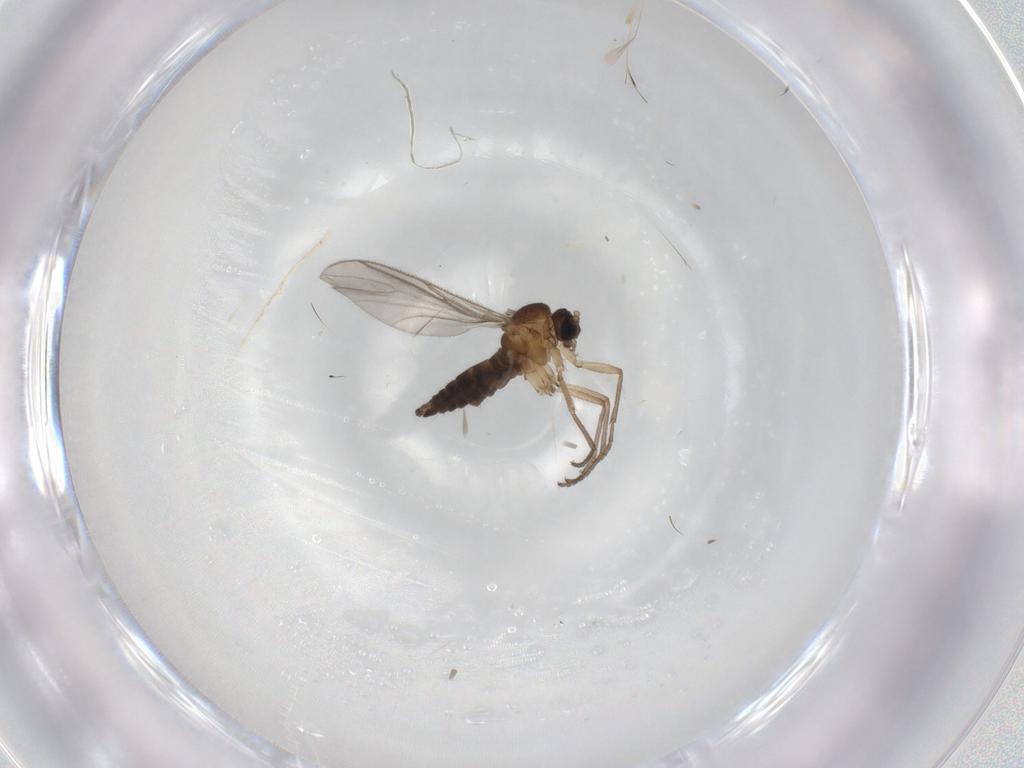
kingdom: Animalia
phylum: Arthropoda
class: Insecta
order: Diptera
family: Sciaridae
